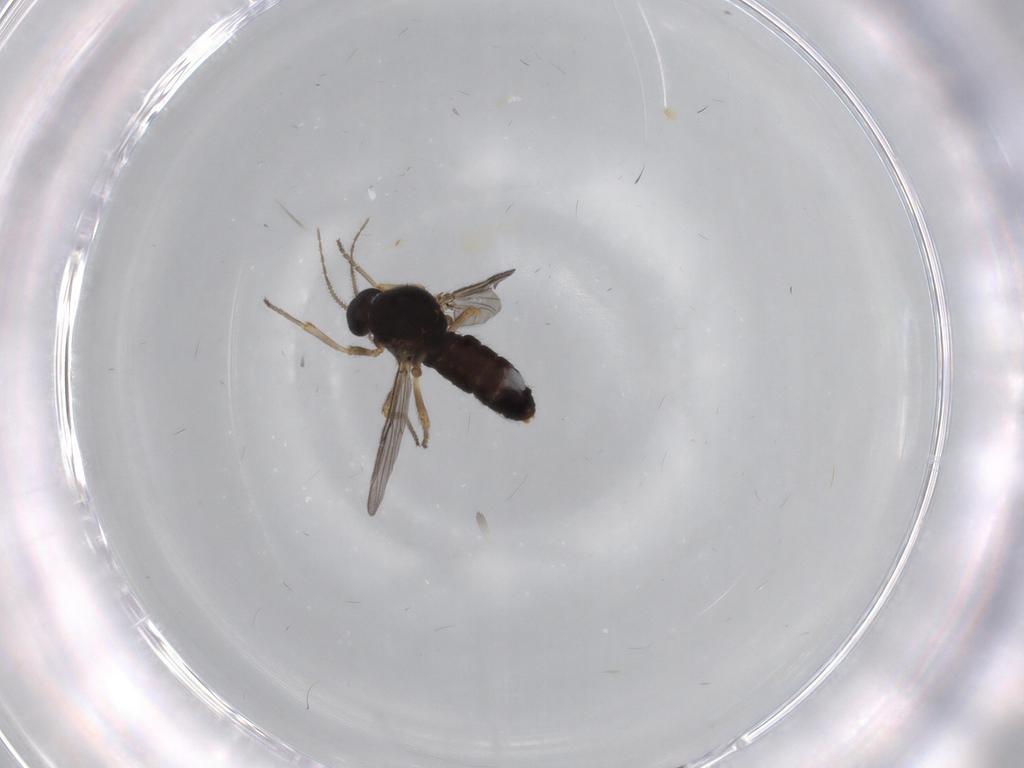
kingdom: Animalia
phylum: Arthropoda
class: Insecta
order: Diptera
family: Ceratopogonidae
